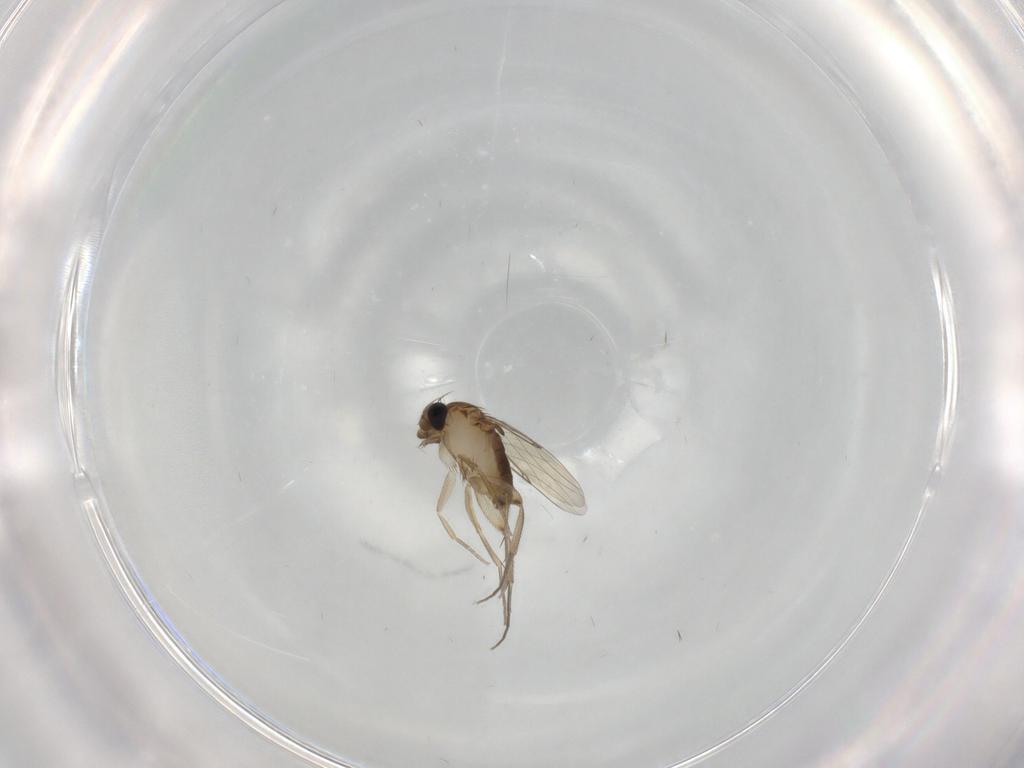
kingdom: Animalia
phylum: Arthropoda
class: Insecta
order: Diptera
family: Phoridae
